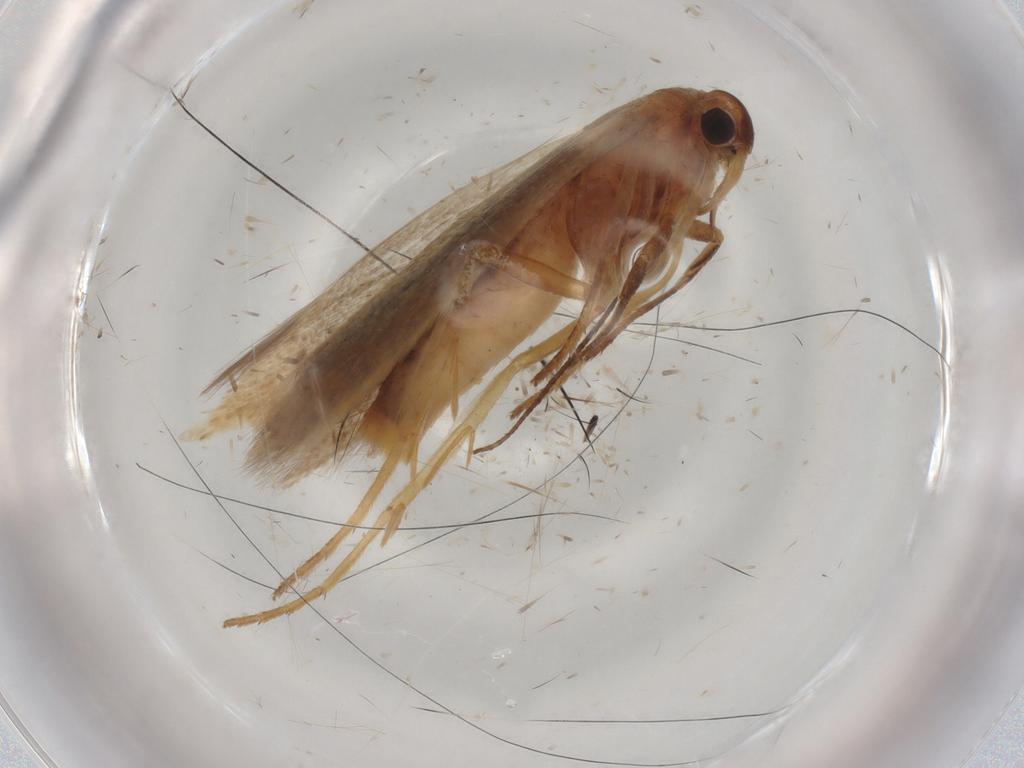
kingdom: Animalia
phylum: Arthropoda
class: Insecta
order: Lepidoptera
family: Scythrididae
